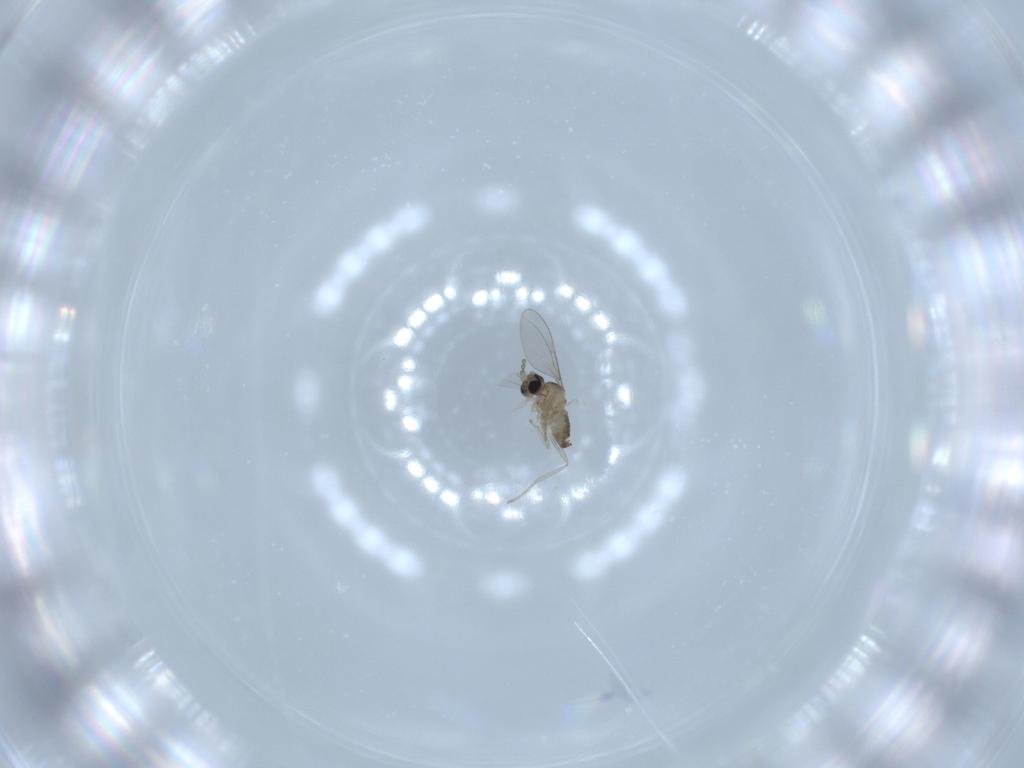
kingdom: Animalia
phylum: Arthropoda
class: Insecta
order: Diptera
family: Cecidomyiidae
